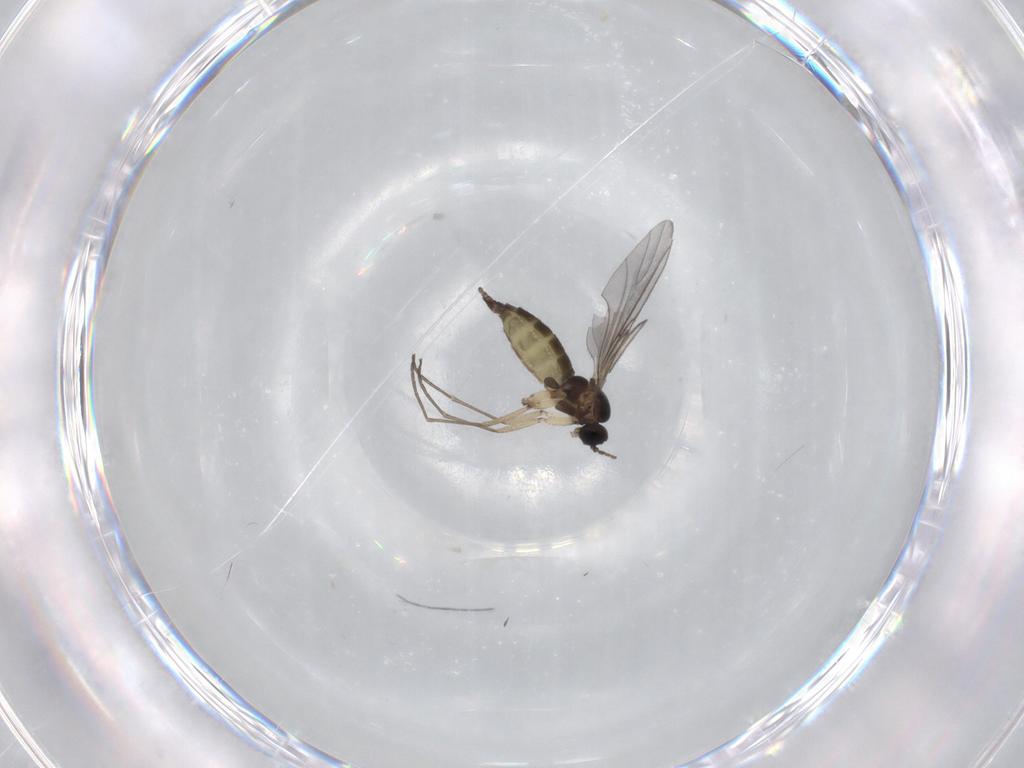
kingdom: Animalia
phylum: Arthropoda
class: Insecta
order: Diptera
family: Sciaridae
